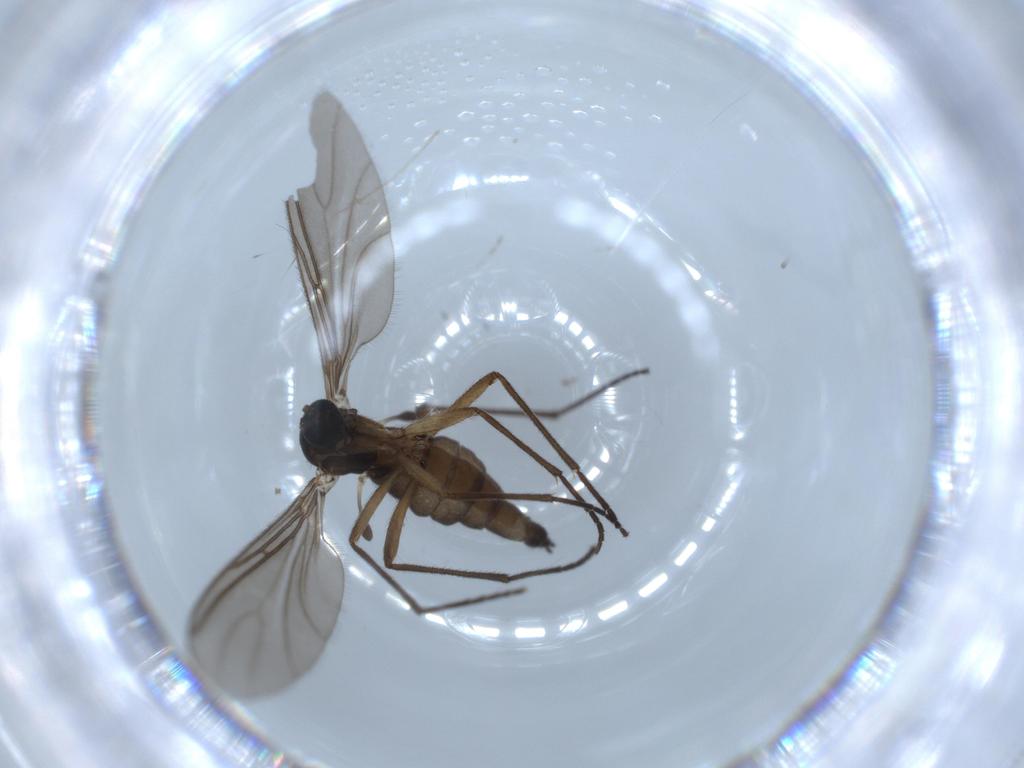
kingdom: Animalia
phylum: Arthropoda
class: Insecta
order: Diptera
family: Sciaridae
